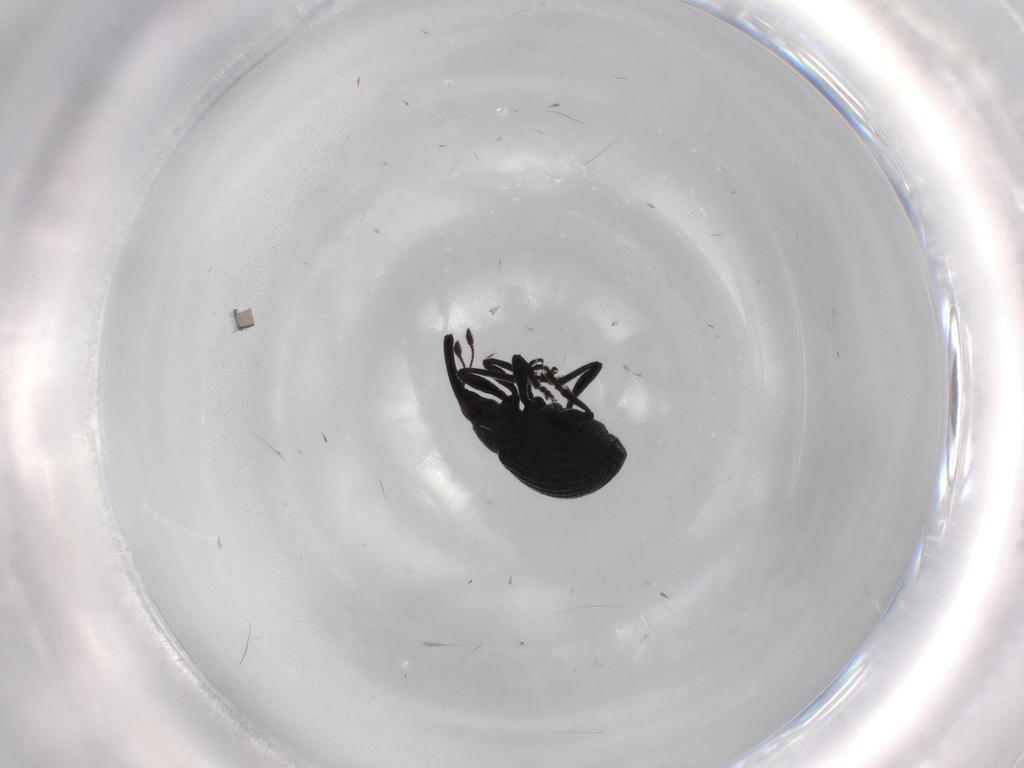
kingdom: Animalia
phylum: Arthropoda
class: Insecta
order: Coleoptera
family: Brentidae
